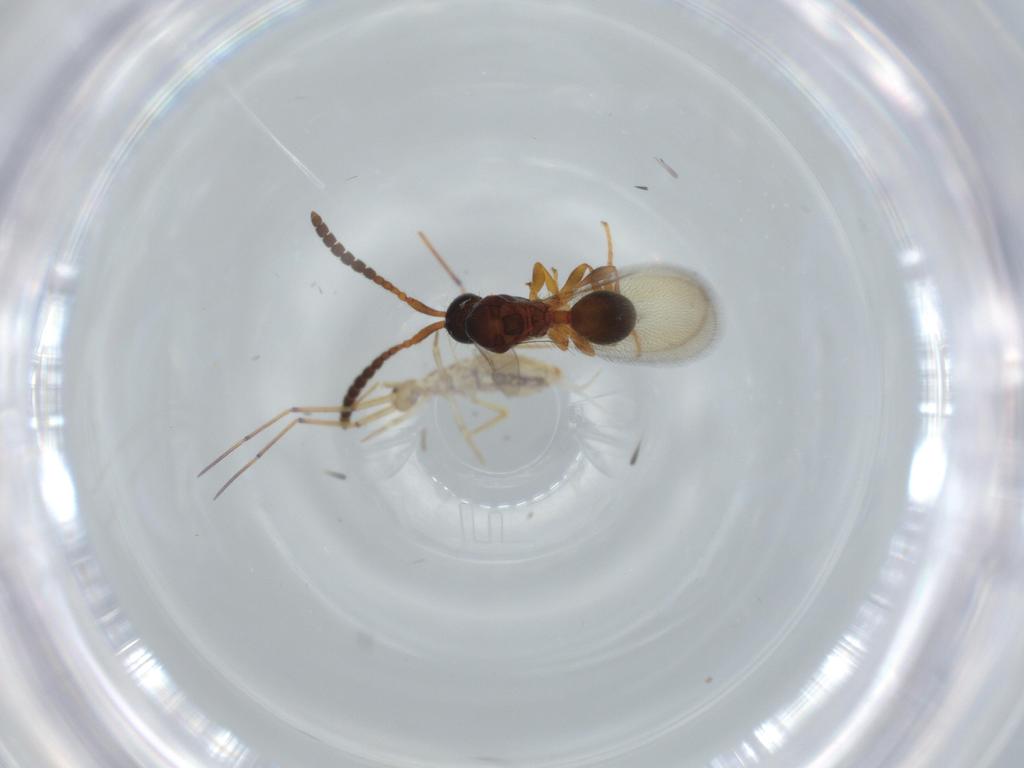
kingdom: Animalia
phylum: Arthropoda
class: Insecta
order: Hymenoptera
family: Diapriidae
